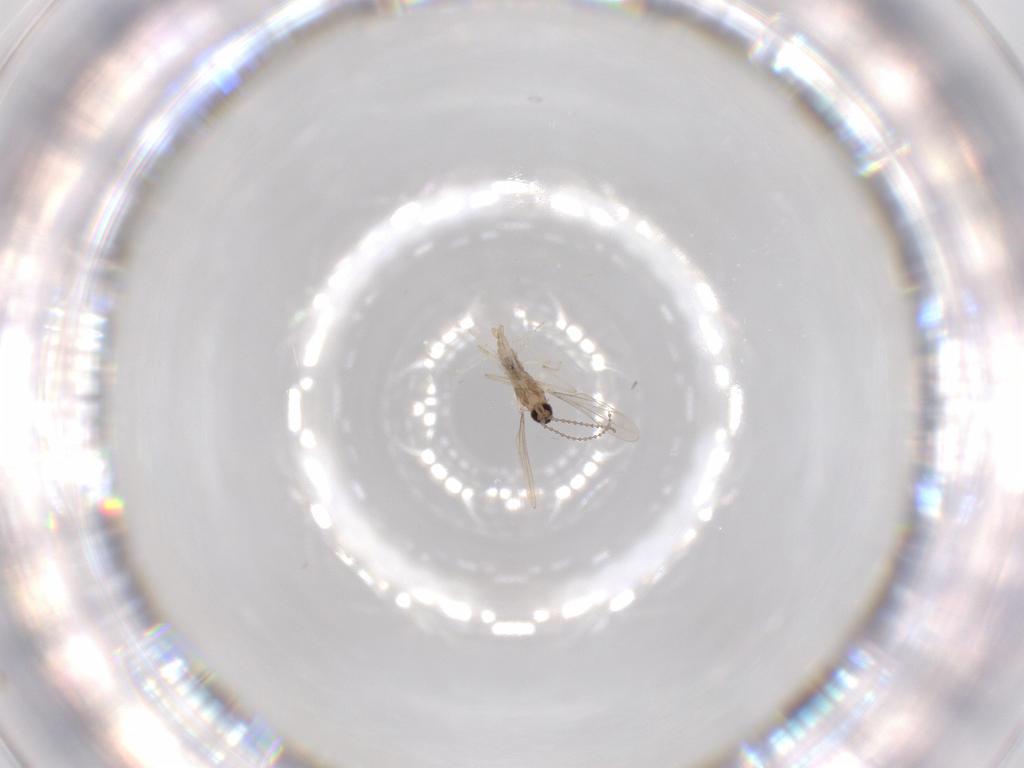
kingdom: Animalia
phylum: Arthropoda
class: Insecta
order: Diptera
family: Cecidomyiidae
